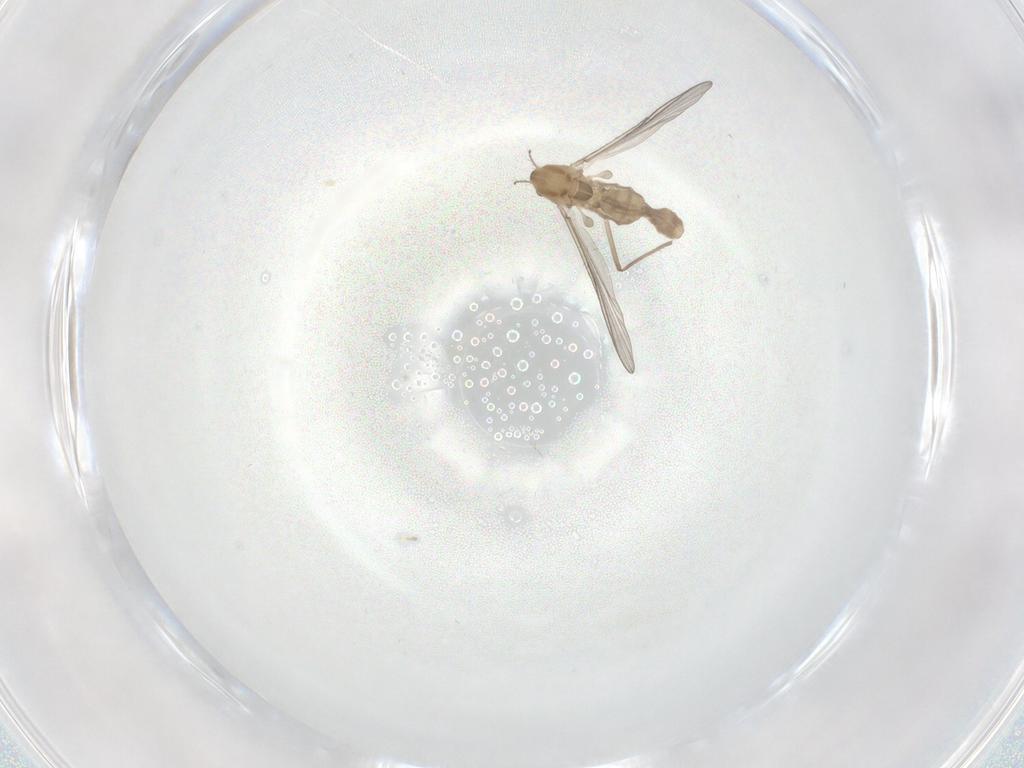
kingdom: Animalia
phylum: Arthropoda
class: Insecta
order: Diptera
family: Chironomidae
